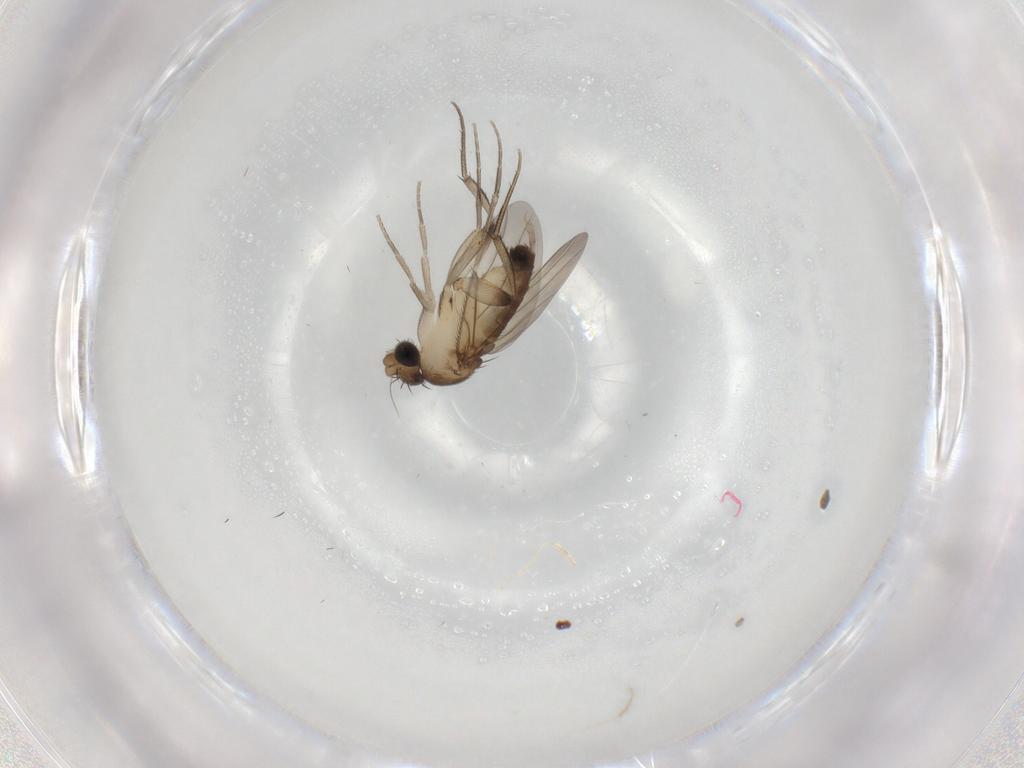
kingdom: Animalia
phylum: Arthropoda
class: Insecta
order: Diptera
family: Phoridae
